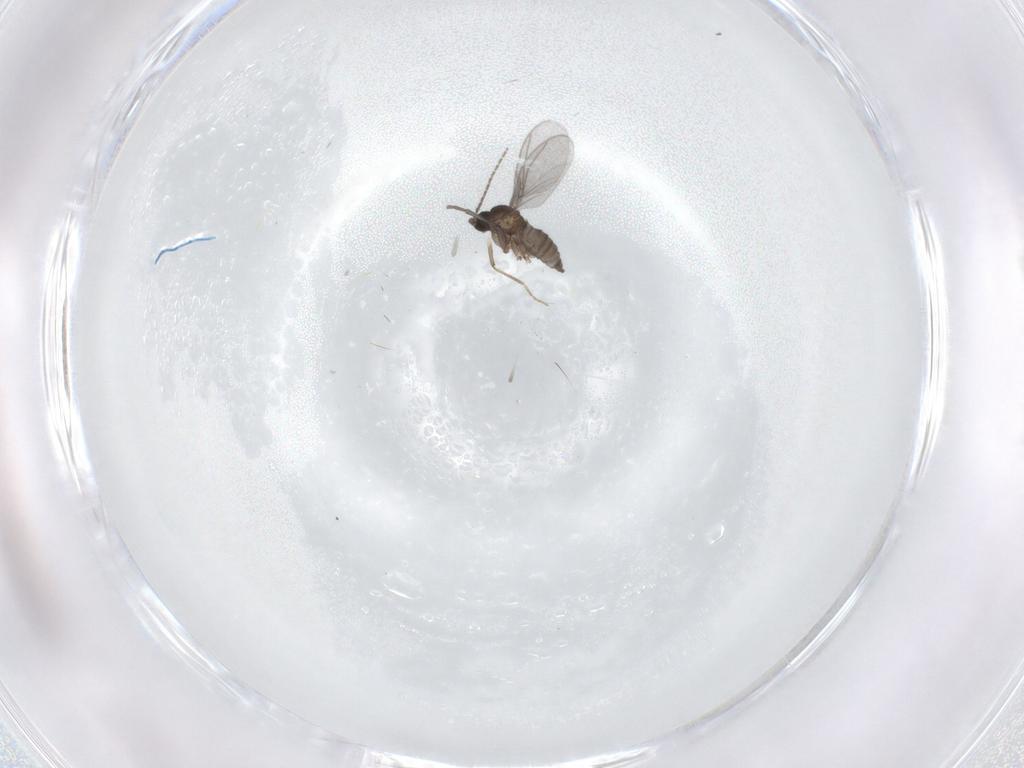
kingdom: Animalia
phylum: Arthropoda
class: Insecta
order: Diptera
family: Sciaridae
